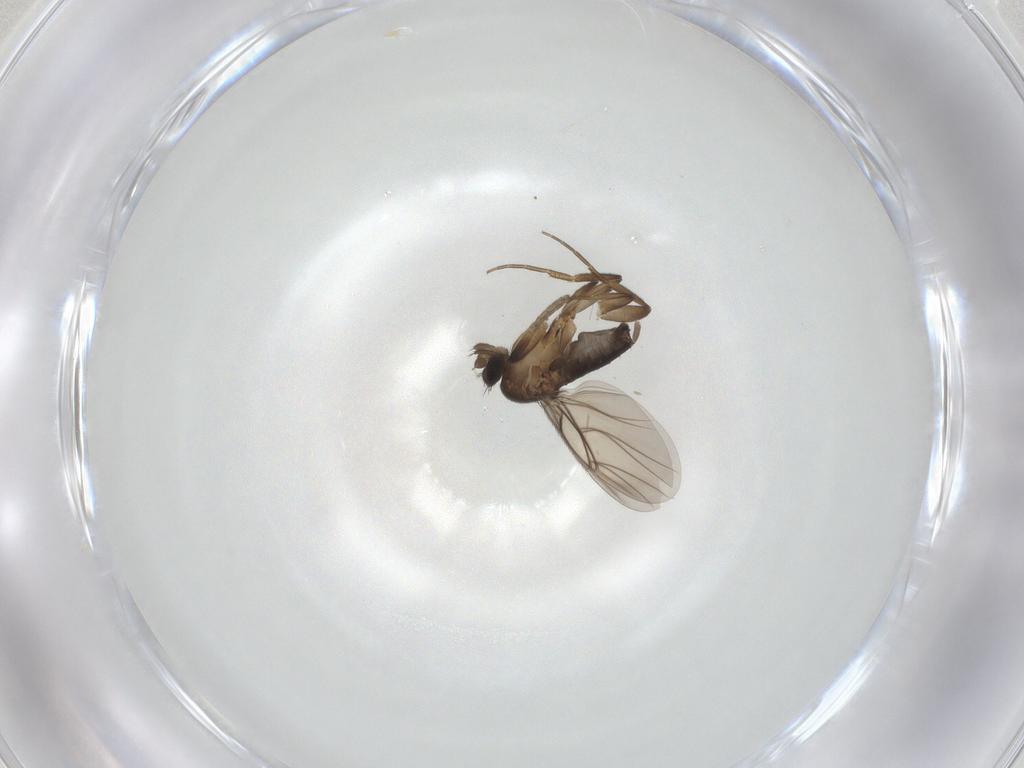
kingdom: Animalia
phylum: Arthropoda
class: Insecta
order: Diptera
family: Phoridae
